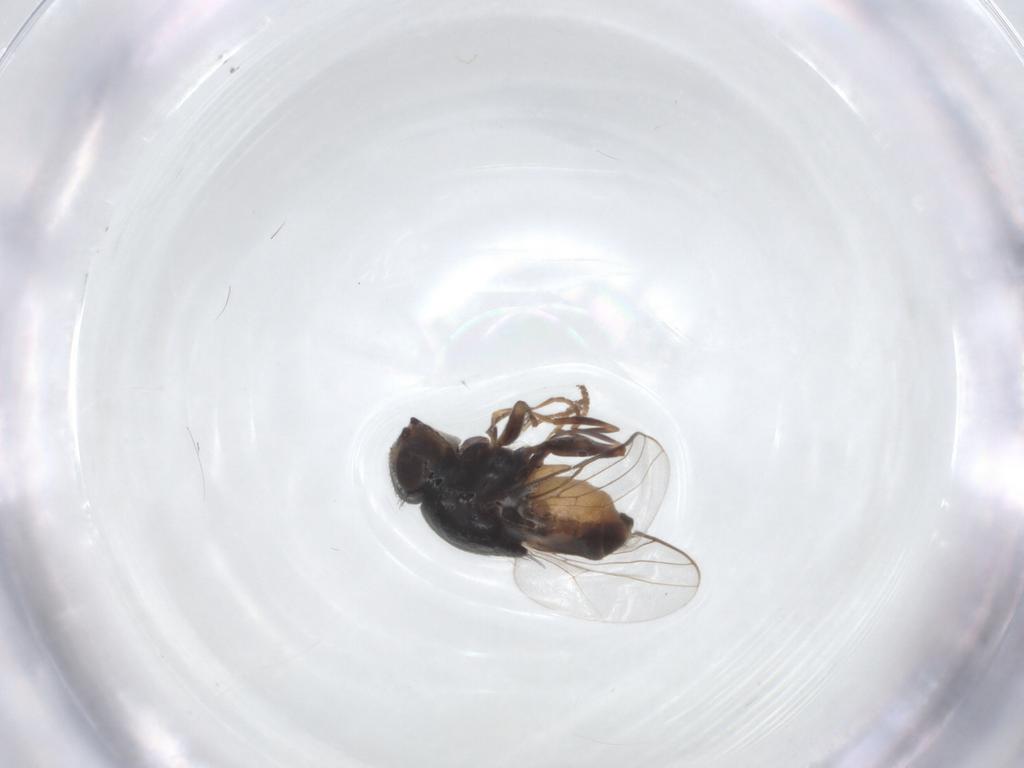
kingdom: Animalia
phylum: Arthropoda
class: Insecta
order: Diptera
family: Chloropidae
